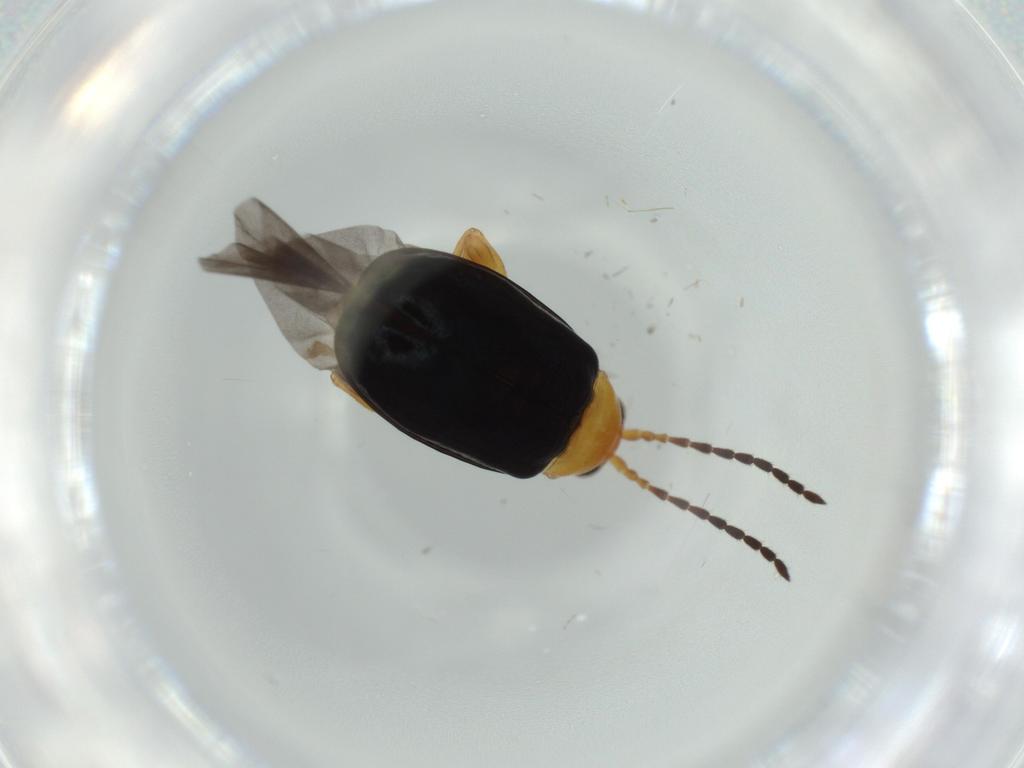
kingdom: Animalia
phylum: Arthropoda
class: Insecta
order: Coleoptera
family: Chrysomelidae
